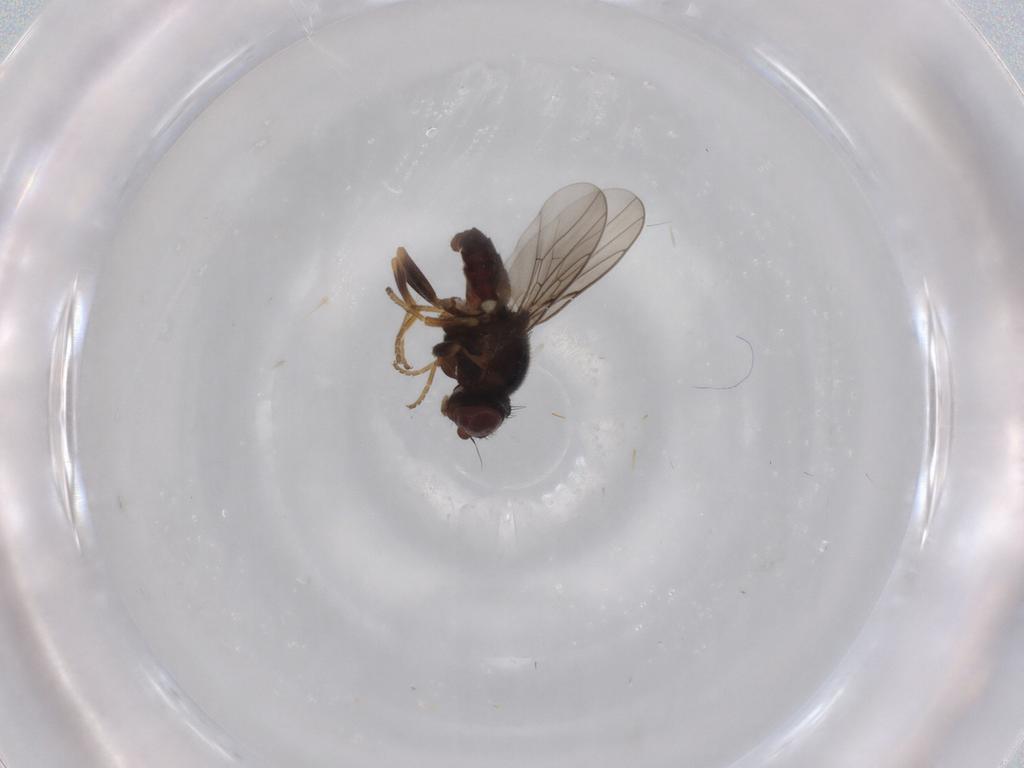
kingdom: Animalia
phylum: Arthropoda
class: Insecta
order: Diptera
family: Chloropidae
